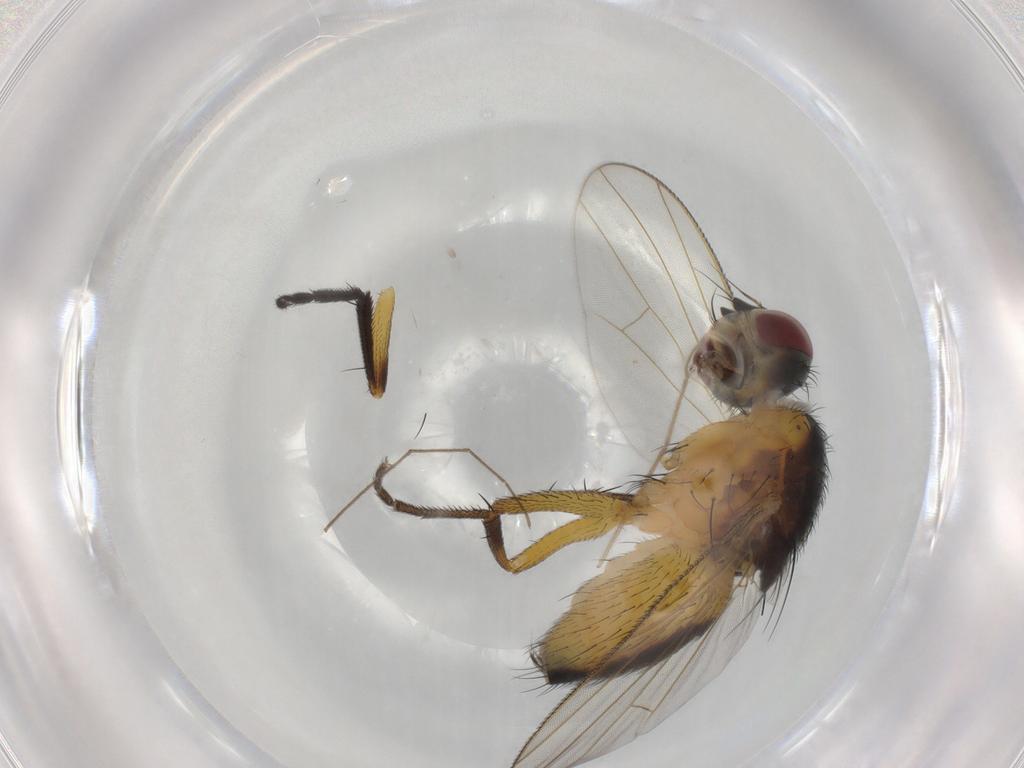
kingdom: Animalia
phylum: Arthropoda
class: Insecta
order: Diptera
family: Muscidae
